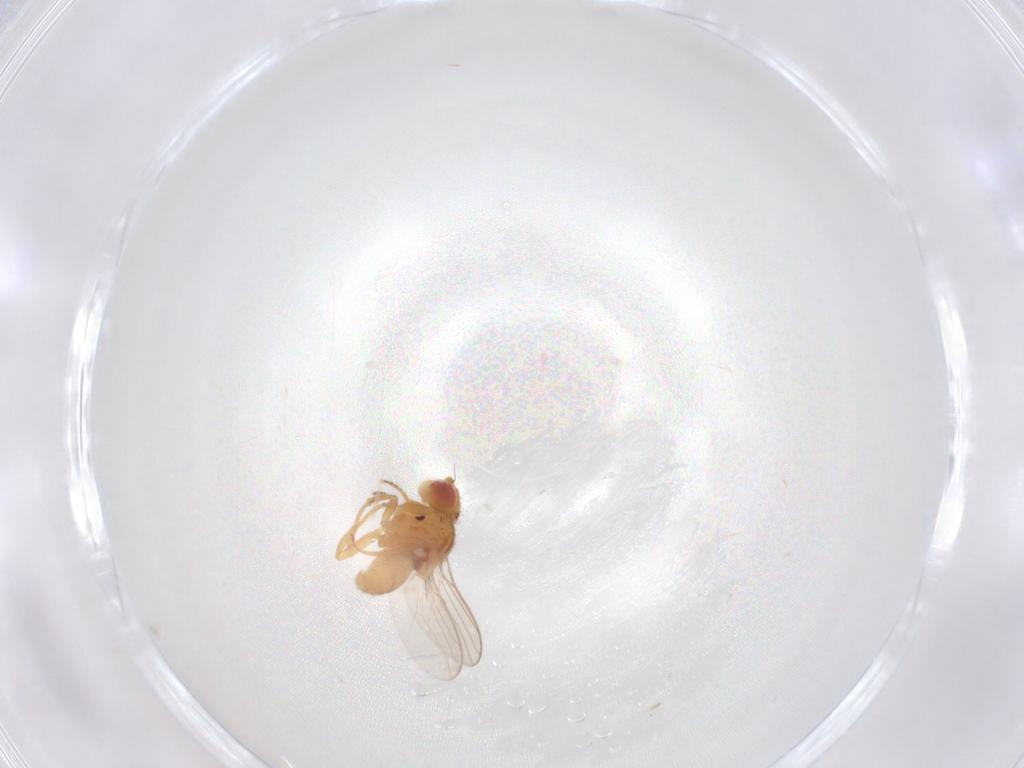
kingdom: Animalia
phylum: Arthropoda
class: Insecta
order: Diptera
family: Chloropidae
